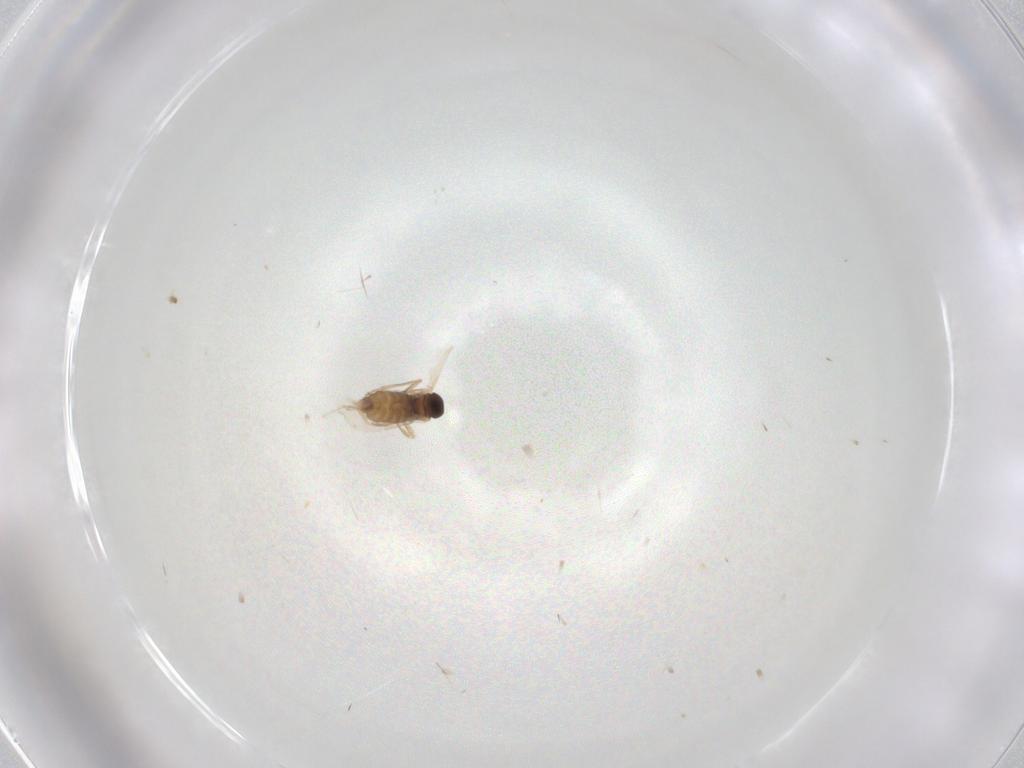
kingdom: Animalia
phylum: Arthropoda
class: Insecta
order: Diptera
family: Cecidomyiidae
